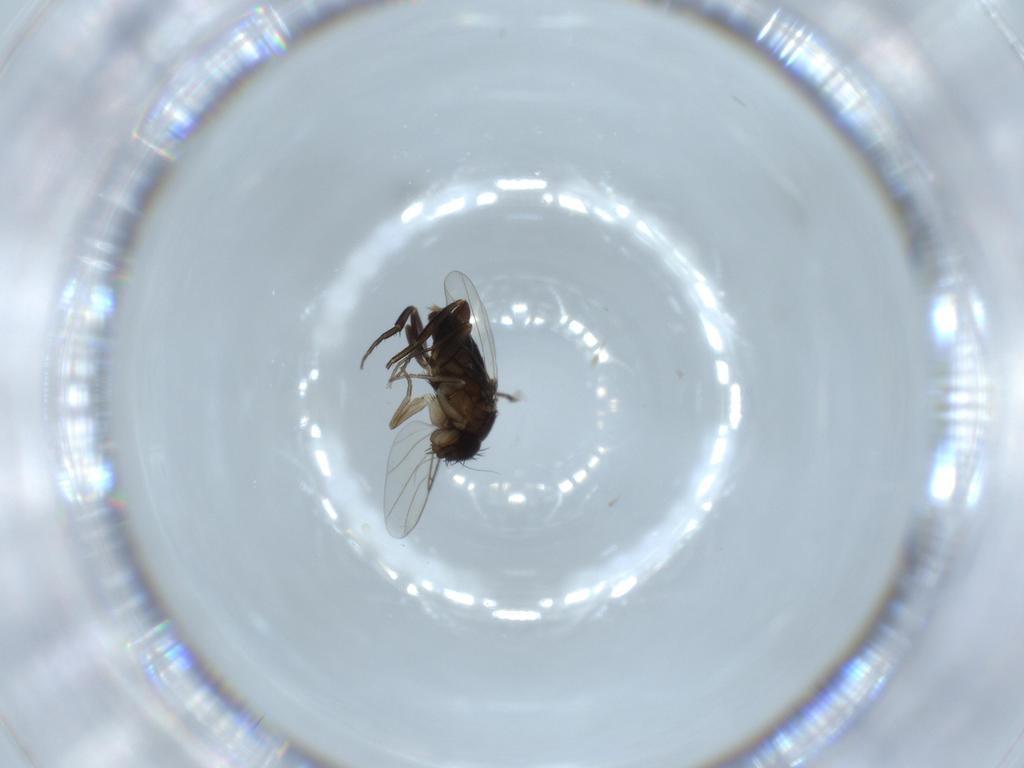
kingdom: Animalia
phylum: Arthropoda
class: Insecta
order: Diptera
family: Phoridae
